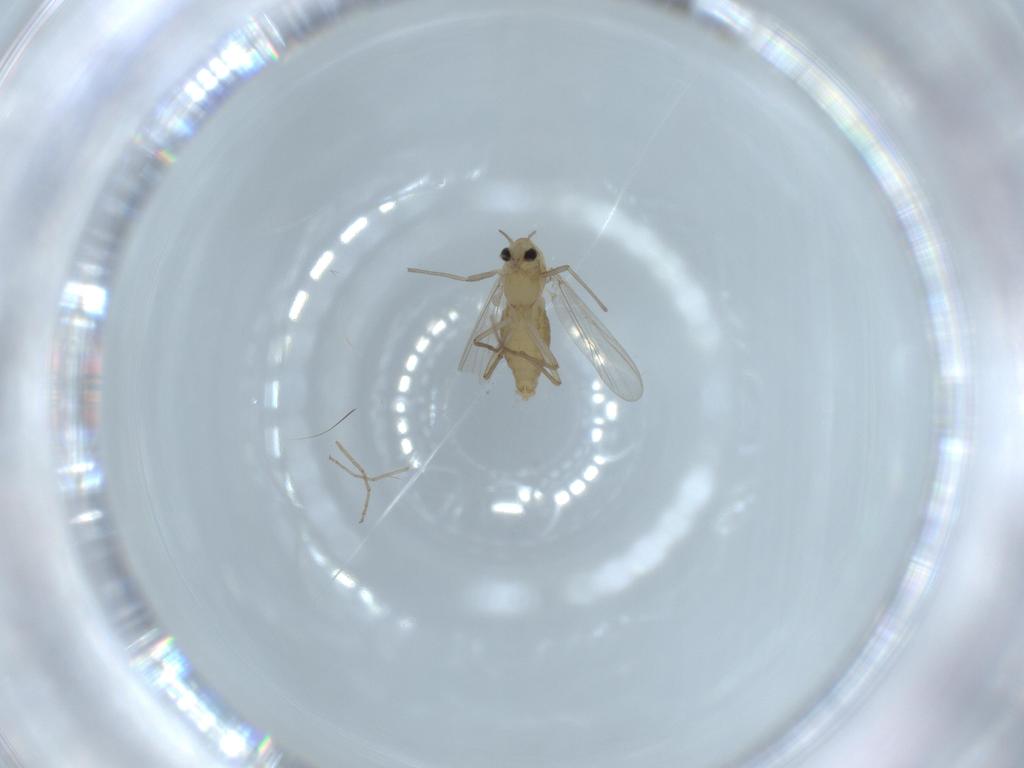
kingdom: Animalia
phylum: Arthropoda
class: Insecta
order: Diptera
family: Chironomidae
